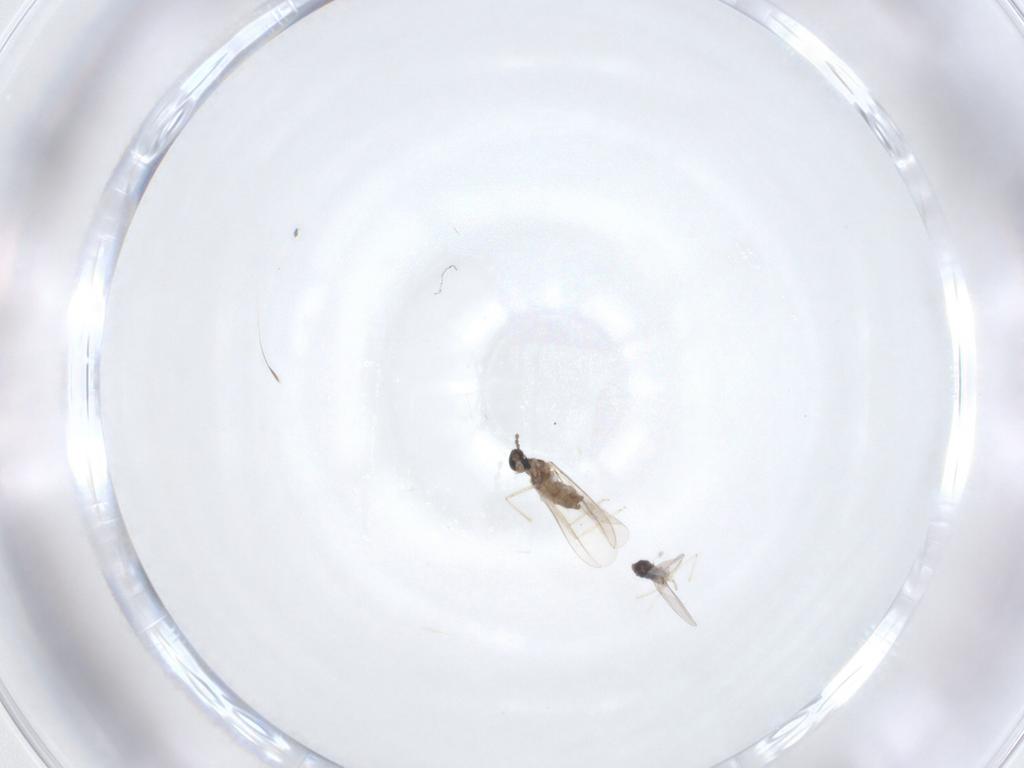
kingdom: Animalia
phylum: Arthropoda
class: Insecta
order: Diptera
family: Cecidomyiidae
